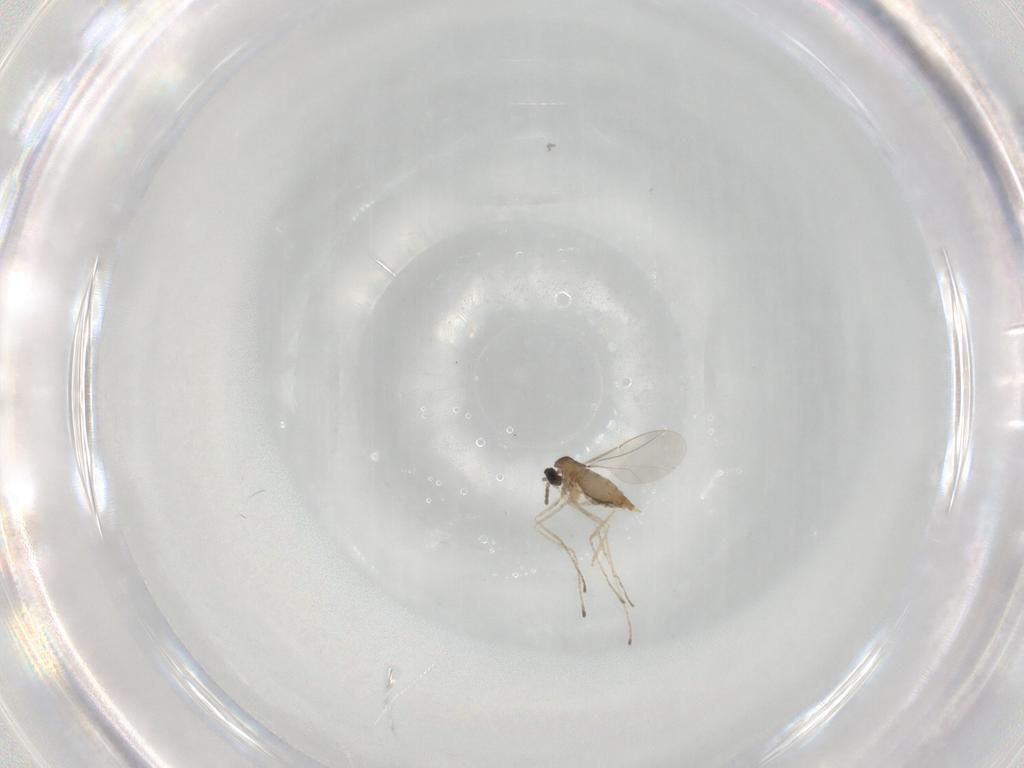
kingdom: Animalia
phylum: Arthropoda
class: Insecta
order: Diptera
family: Cecidomyiidae
